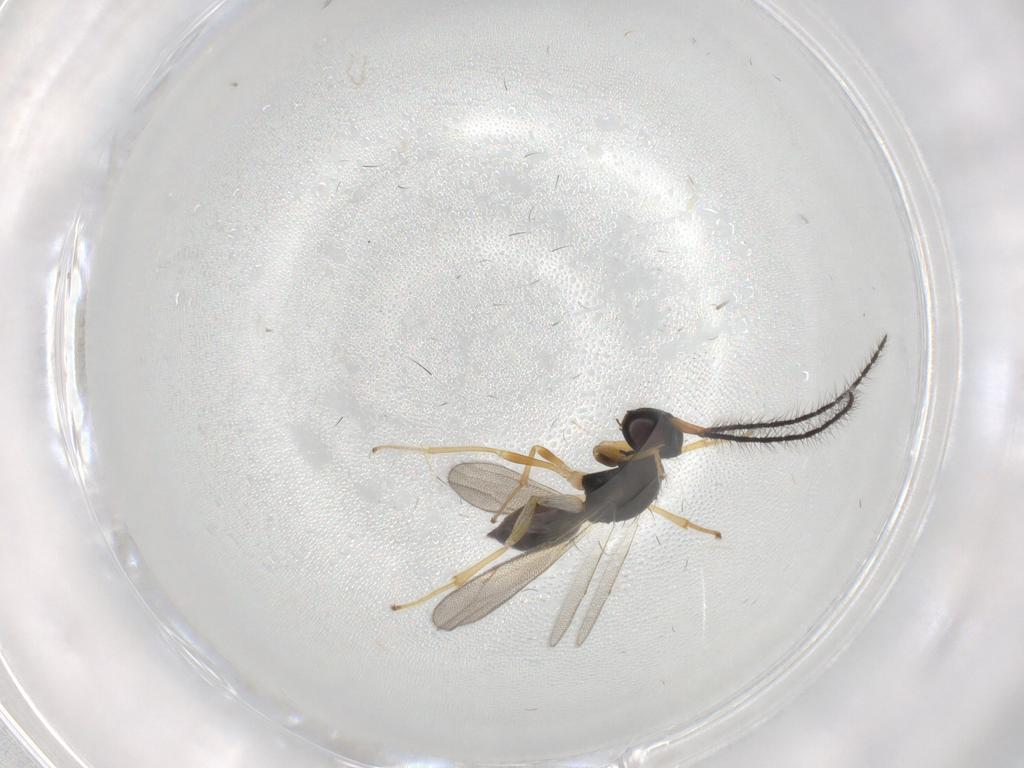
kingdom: Animalia
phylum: Arthropoda
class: Insecta
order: Hymenoptera
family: Diparidae
